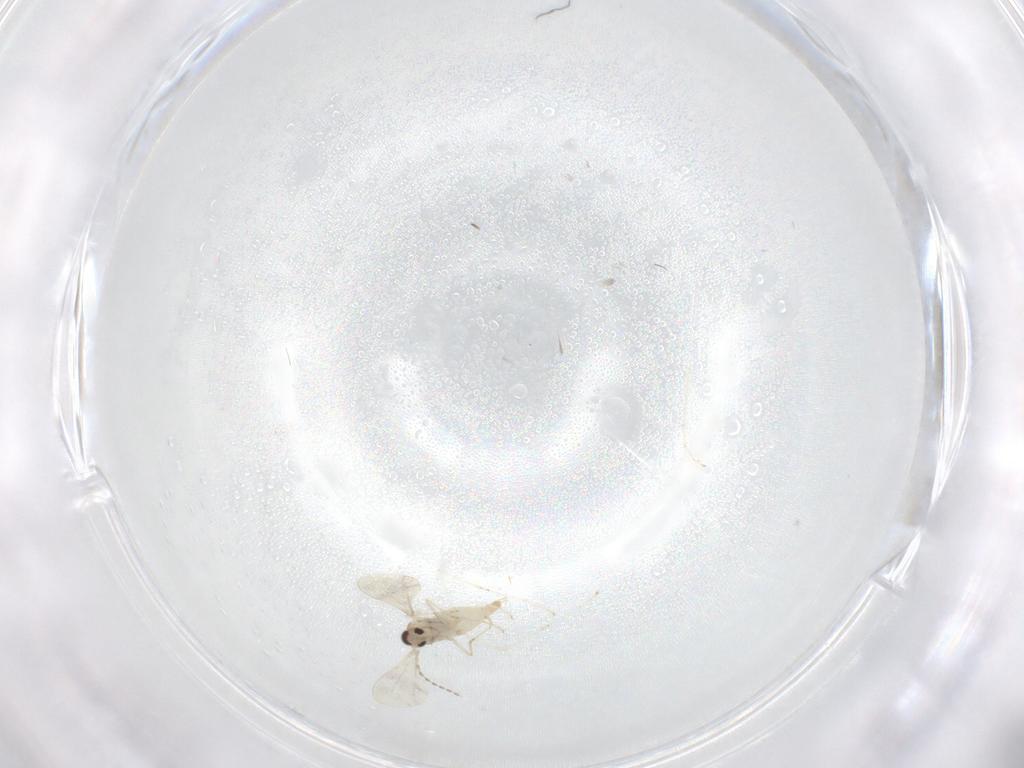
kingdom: Animalia
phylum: Arthropoda
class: Insecta
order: Diptera
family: Cecidomyiidae
